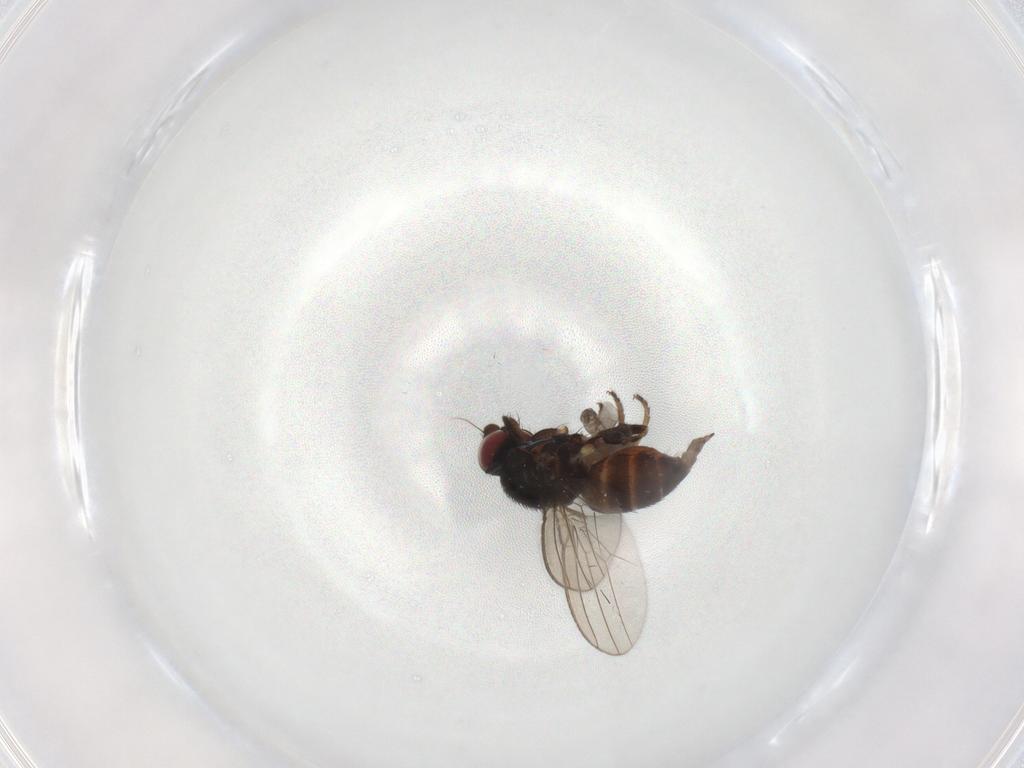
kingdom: Animalia
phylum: Arthropoda
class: Insecta
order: Diptera
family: Milichiidae
